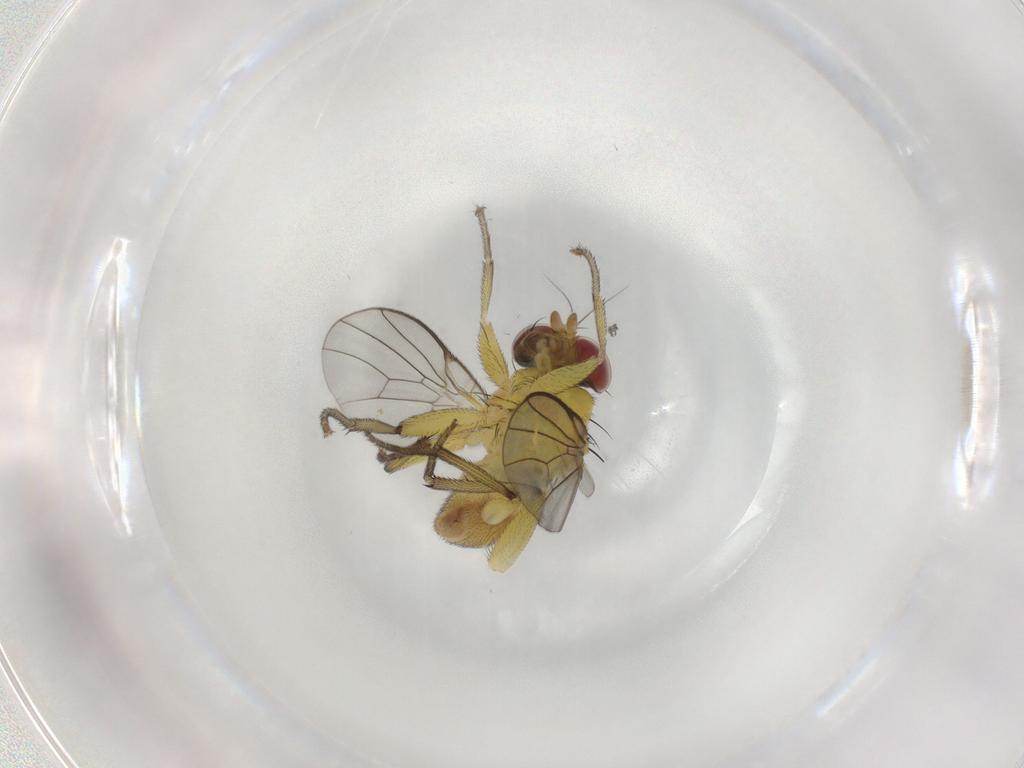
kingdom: Animalia
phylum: Arthropoda
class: Insecta
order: Diptera
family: Agromyzidae
